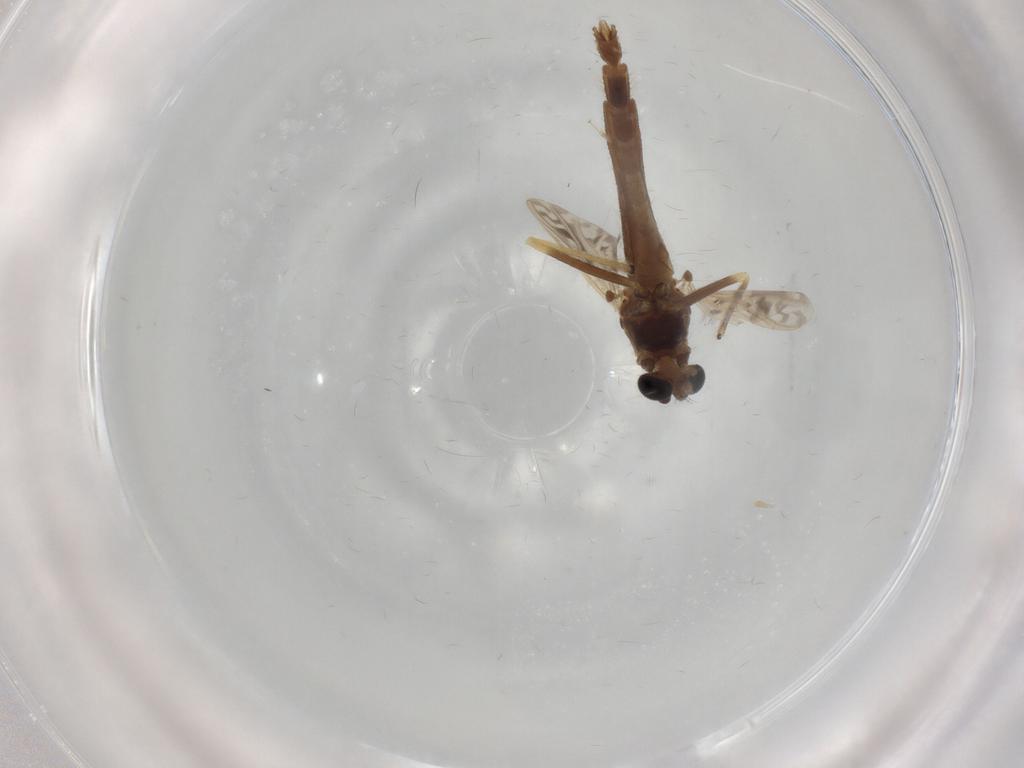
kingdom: Animalia
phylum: Arthropoda
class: Insecta
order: Diptera
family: Chironomidae
